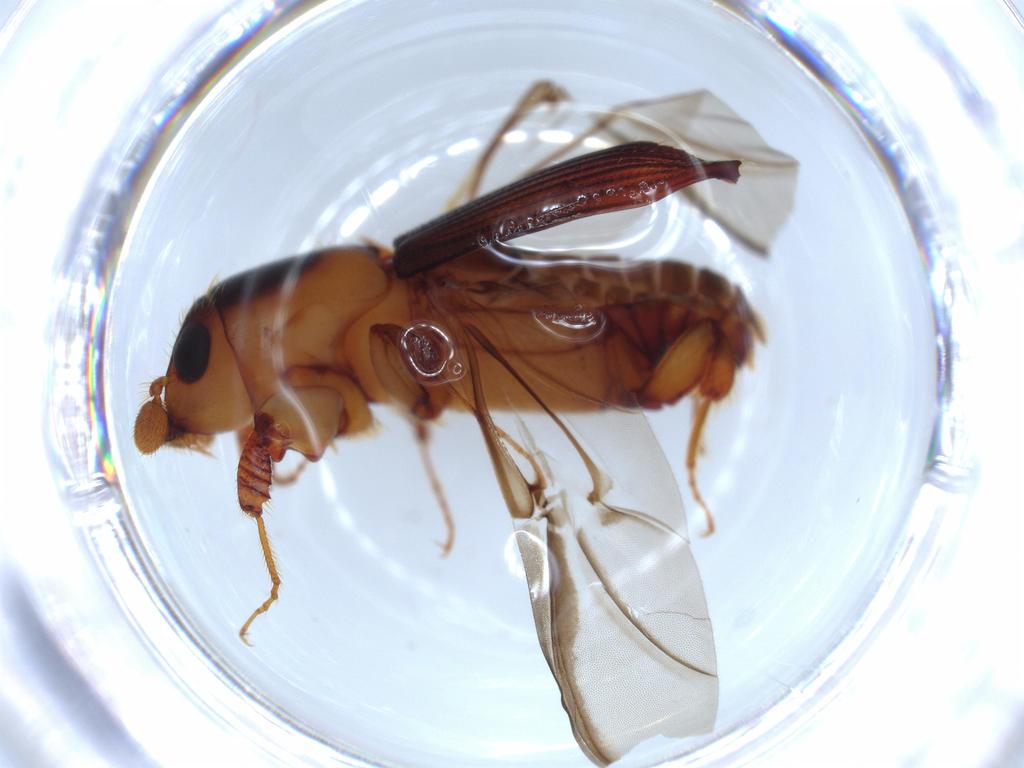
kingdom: Animalia
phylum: Arthropoda
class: Insecta
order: Coleoptera
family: Curculionidae
